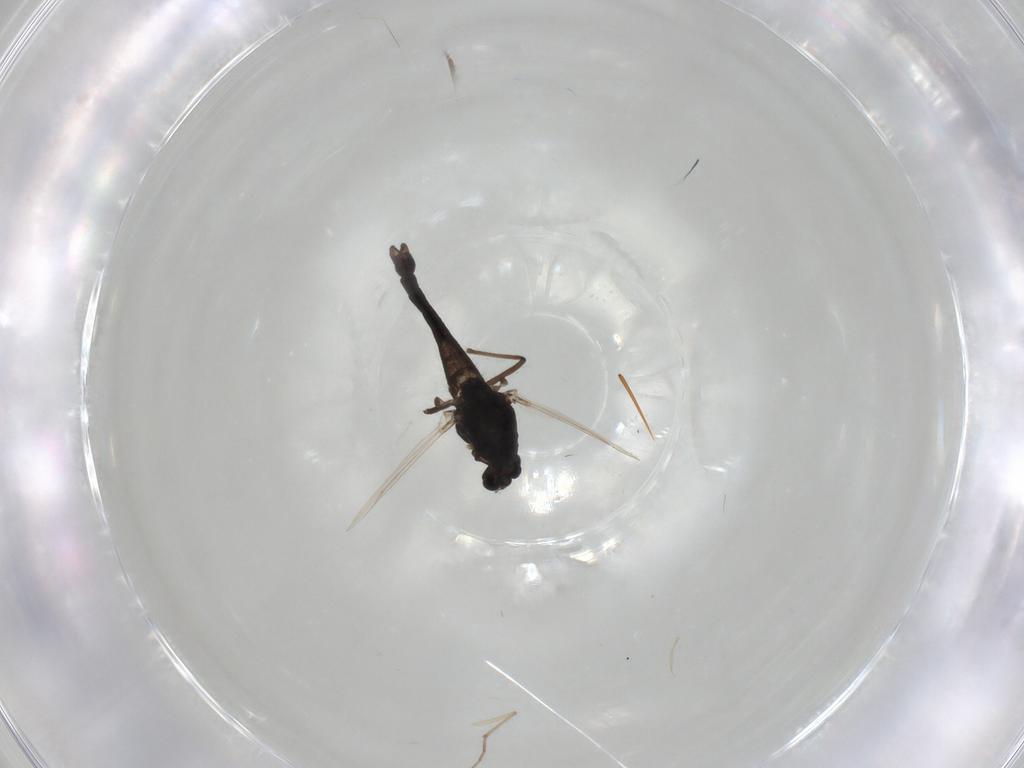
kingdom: Animalia
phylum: Arthropoda
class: Insecta
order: Diptera
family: Chironomidae
